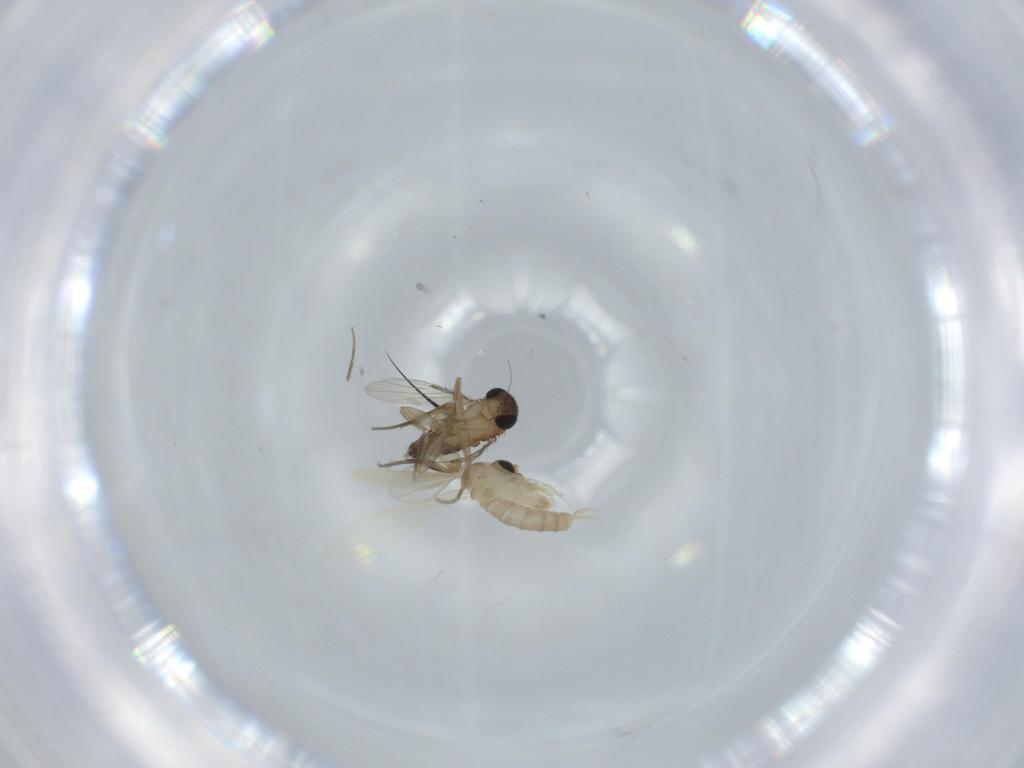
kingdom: Animalia
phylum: Arthropoda
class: Insecta
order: Diptera
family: Psychodidae
